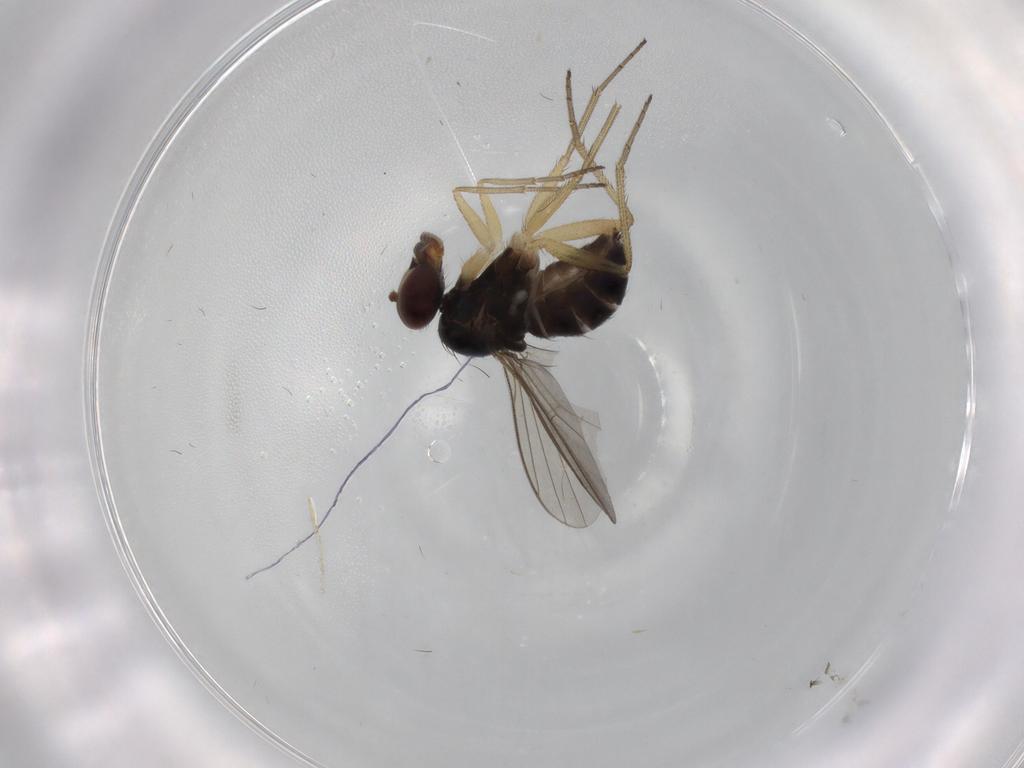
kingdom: Animalia
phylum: Arthropoda
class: Insecta
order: Diptera
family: Dolichopodidae
